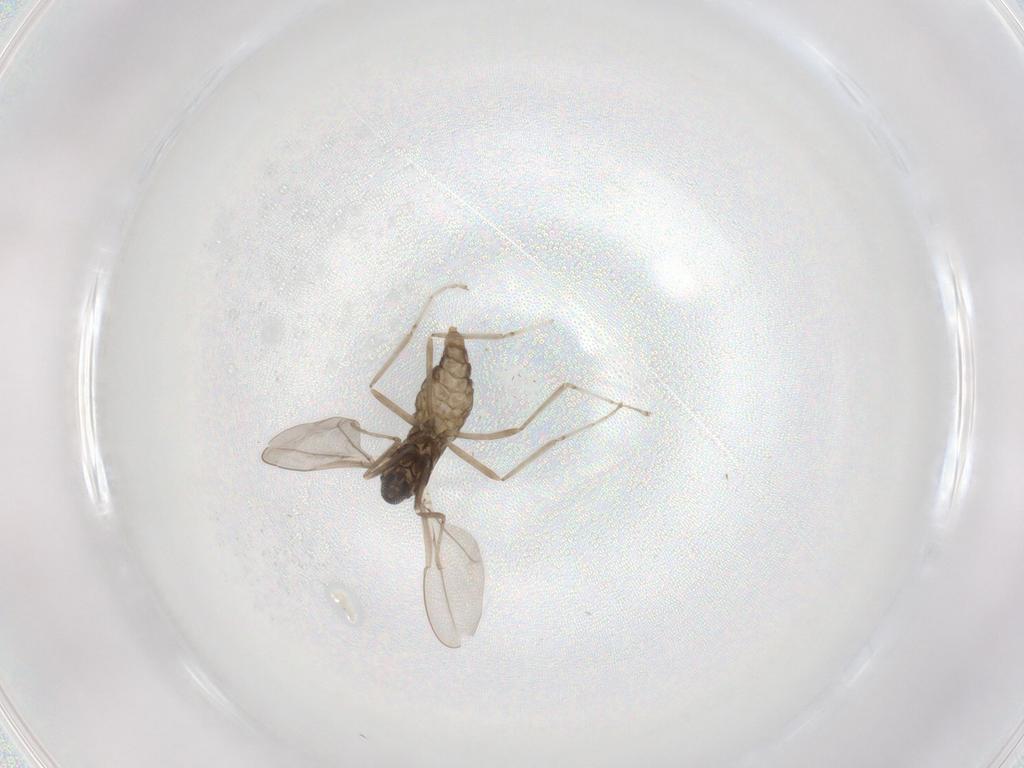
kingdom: Animalia
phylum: Arthropoda
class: Insecta
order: Diptera
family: Cecidomyiidae
